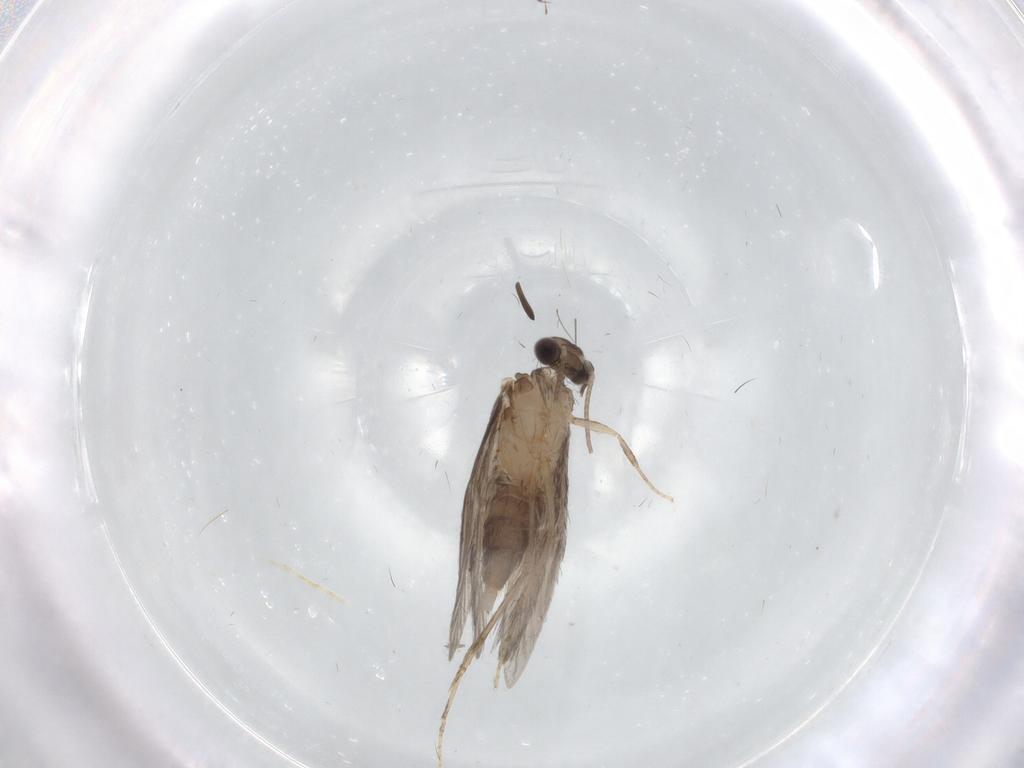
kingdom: Animalia
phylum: Arthropoda
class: Insecta
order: Trichoptera
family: Hydroptilidae
